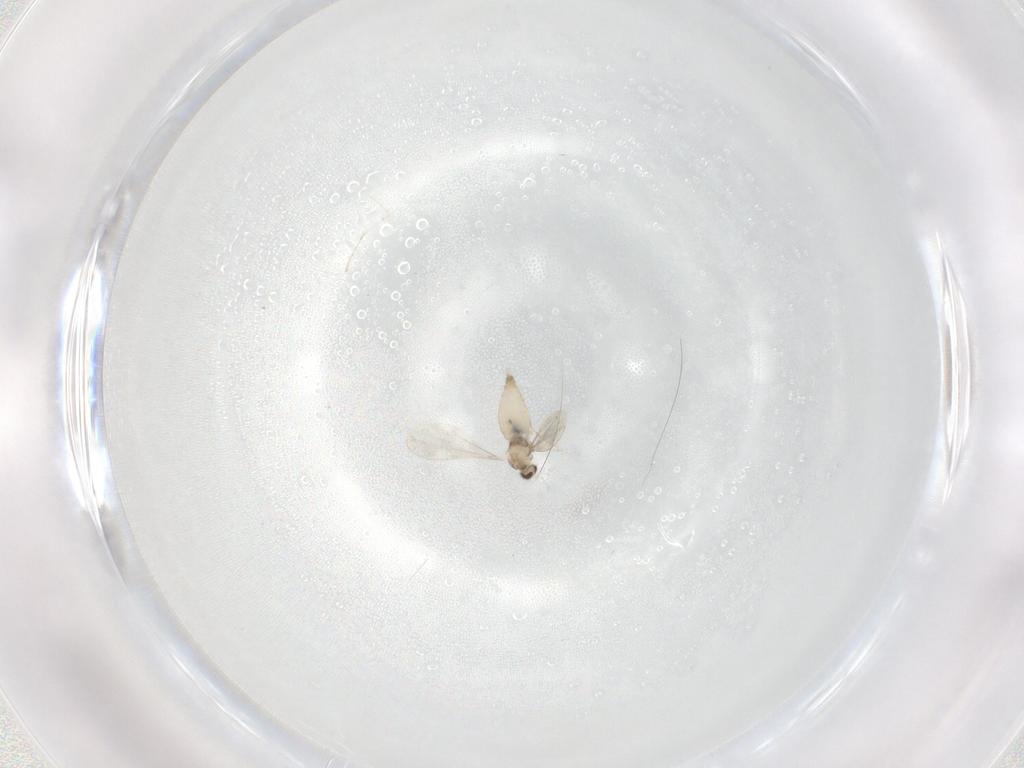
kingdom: Animalia
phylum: Arthropoda
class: Insecta
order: Diptera
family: Cecidomyiidae
